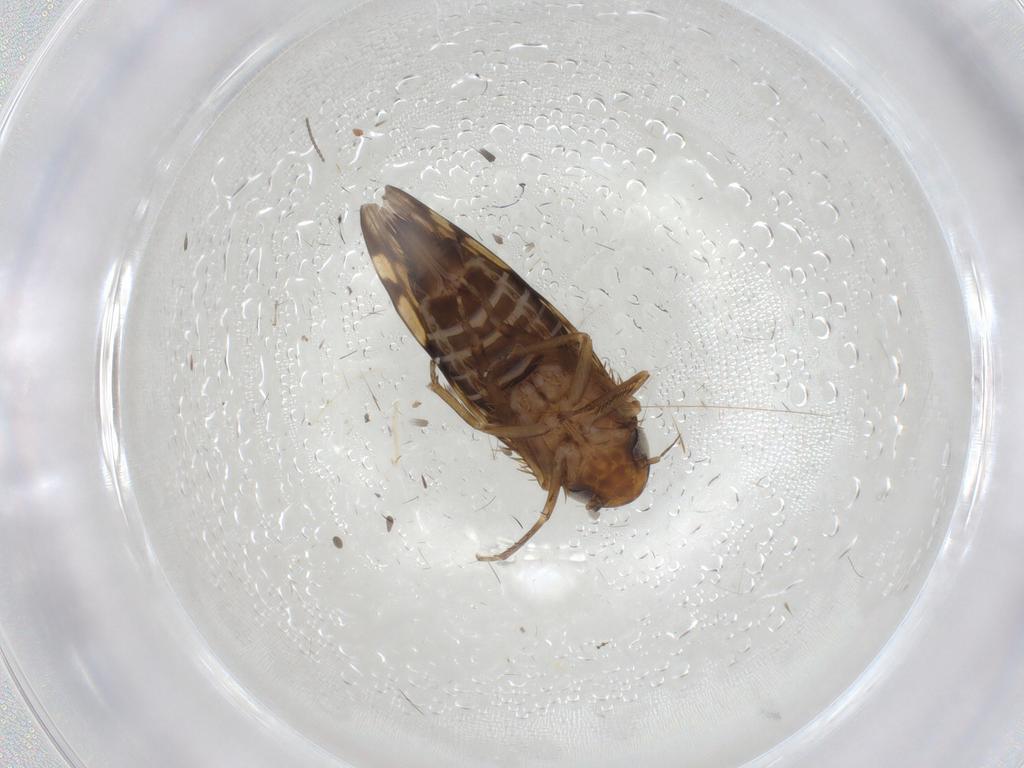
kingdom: Animalia
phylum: Arthropoda
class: Insecta
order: Hemiptera
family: Cicadellidae
